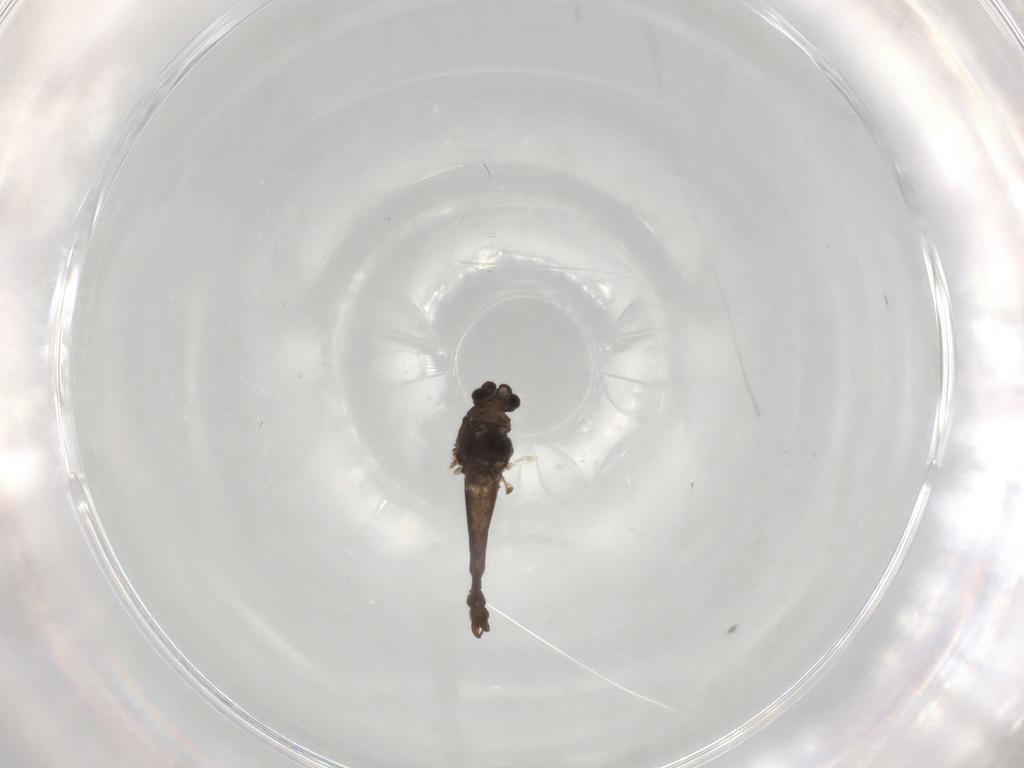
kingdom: Animalia
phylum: Arthropoda
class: Insecta
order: Diptera
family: Chironomidae
